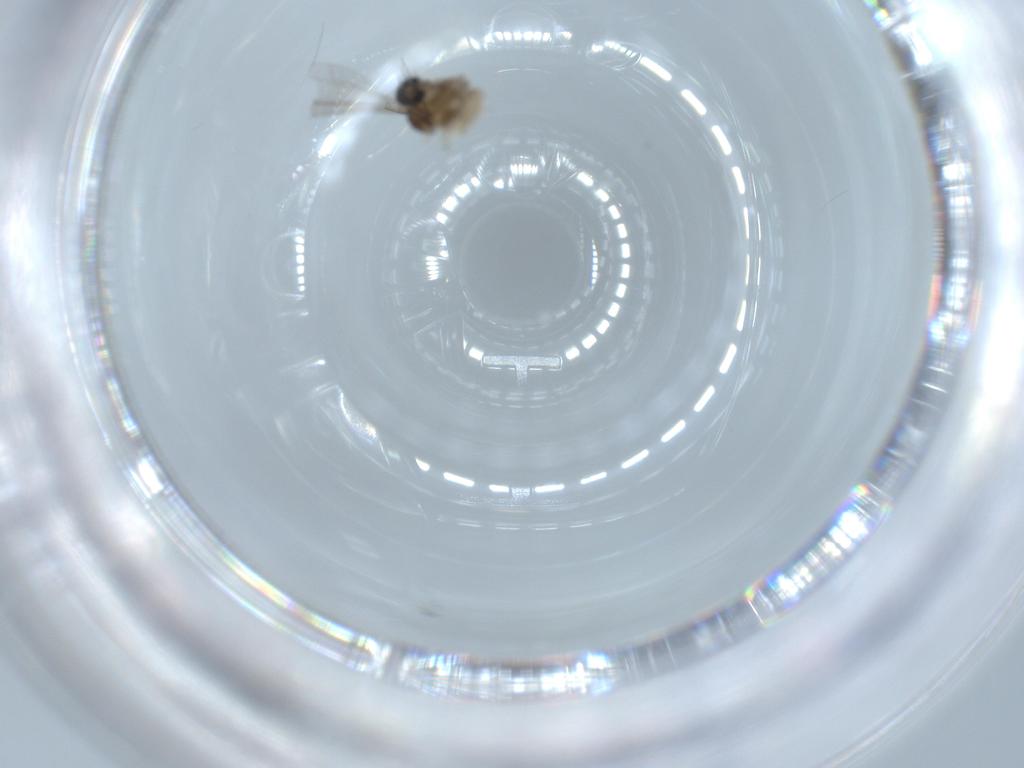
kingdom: Animalia
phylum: Arthropoda
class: Insecta
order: Diptera
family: Cecidomyiidae
